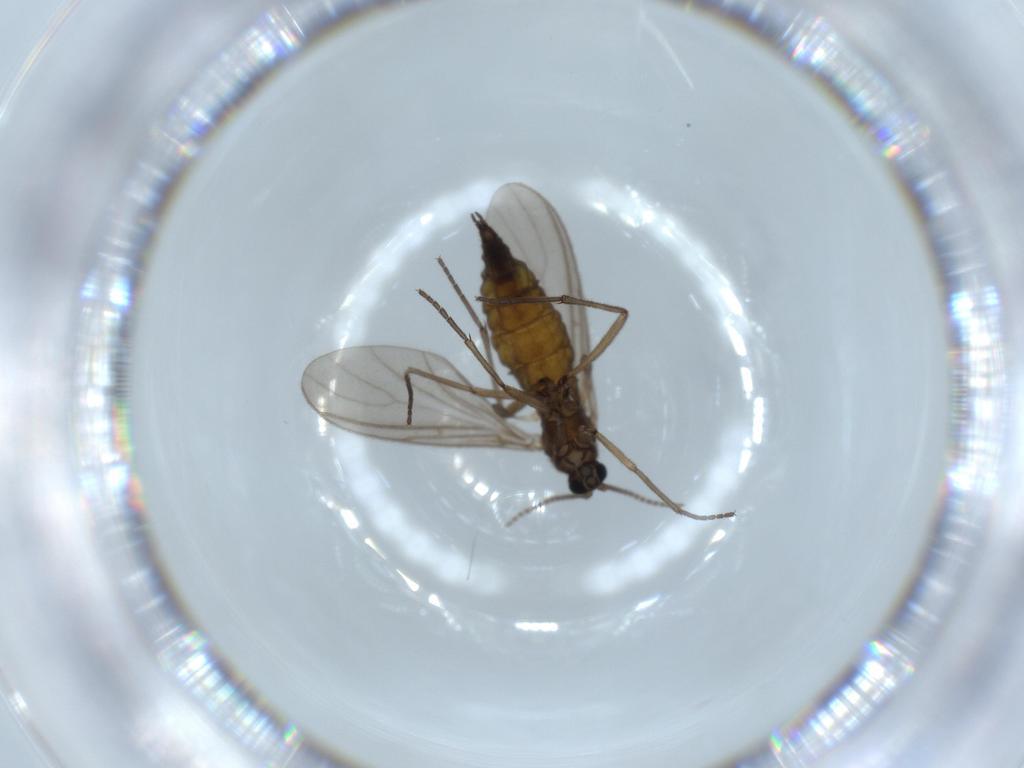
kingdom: Animalia
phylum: Arthropoda
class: Insecta
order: Diptera
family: Sciaridae
